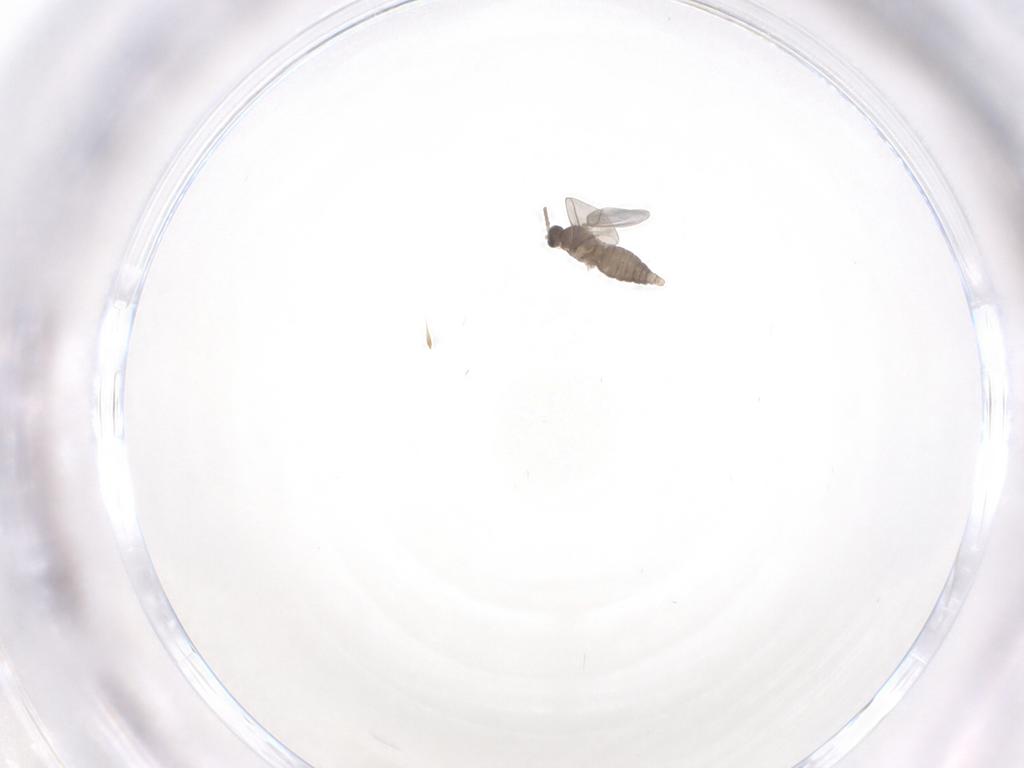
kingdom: Animalia
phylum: Arthropoda
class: Insecta
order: Diptera
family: Cecidomyiidae
